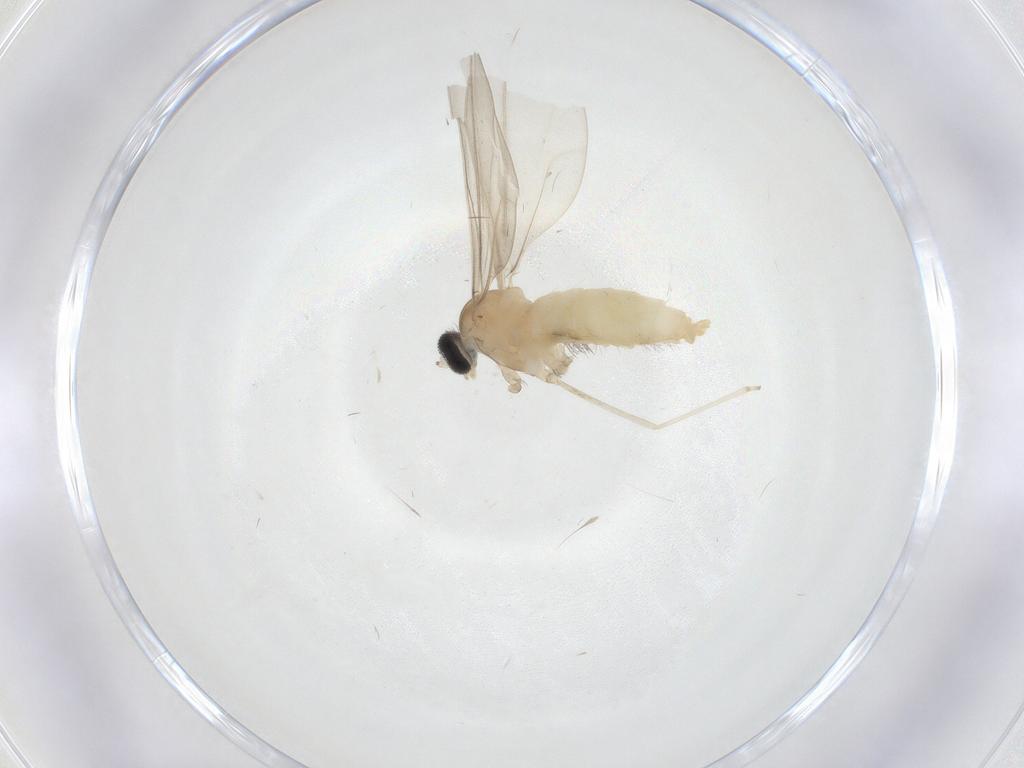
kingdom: Animalia
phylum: Arthropoda
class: Insecta
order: Diptera
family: Cecidomyiidae
